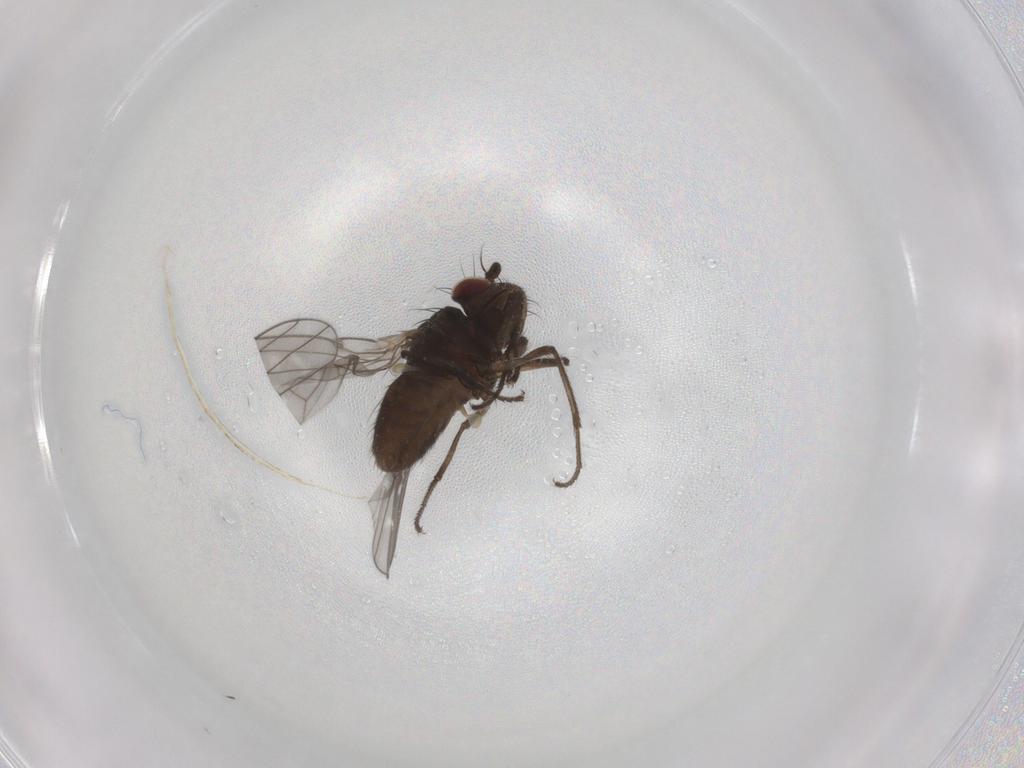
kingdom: Animalia
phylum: Arthropoda
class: Insecta
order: Diptera
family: Ephydridae
